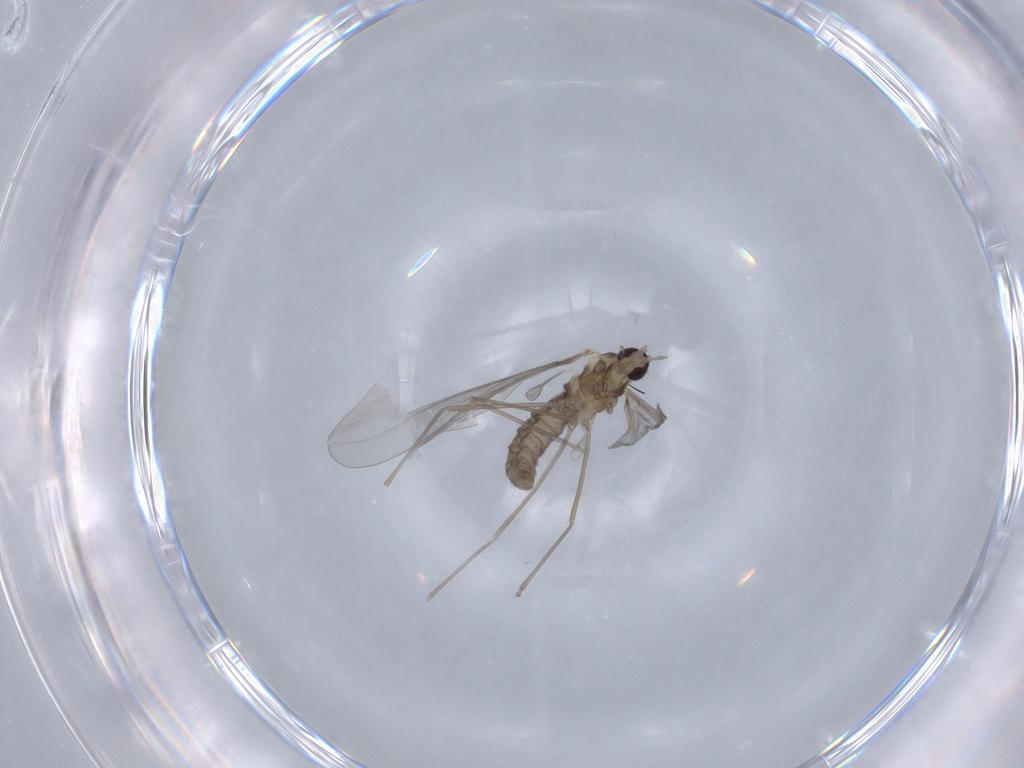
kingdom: Animalia
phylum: Arthropoda
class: Insecta
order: Diptera
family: Cecidomyiidae
